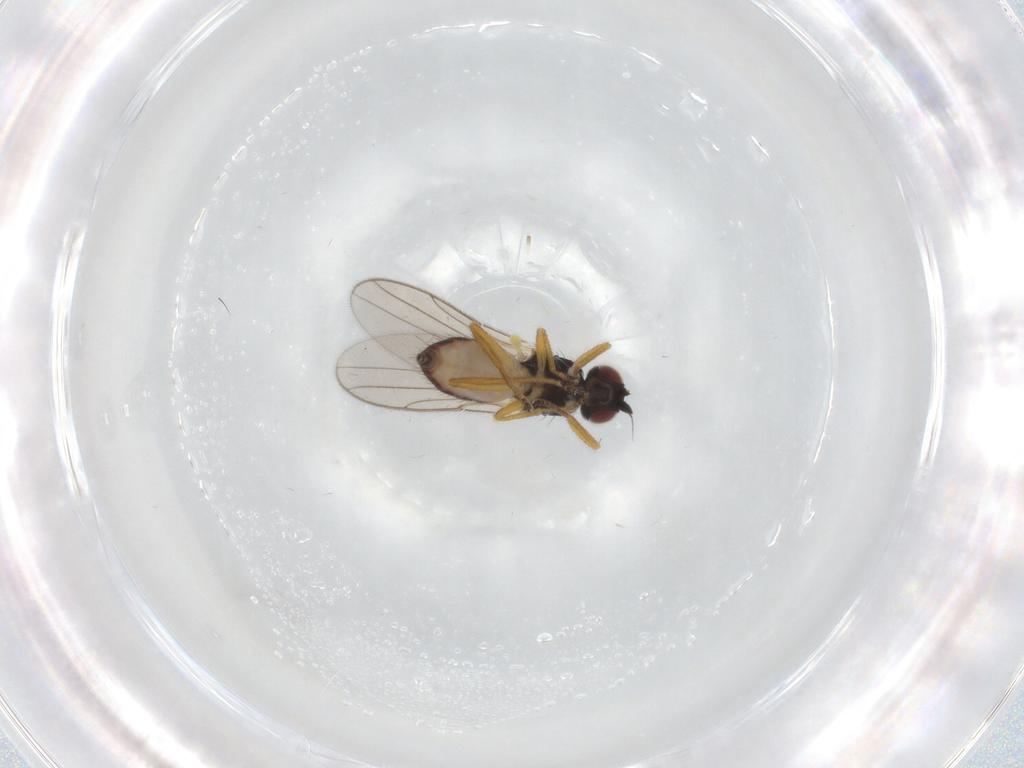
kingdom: Animalia
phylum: Arthropoda
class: Insecta
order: Diptera
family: Chloropidae
